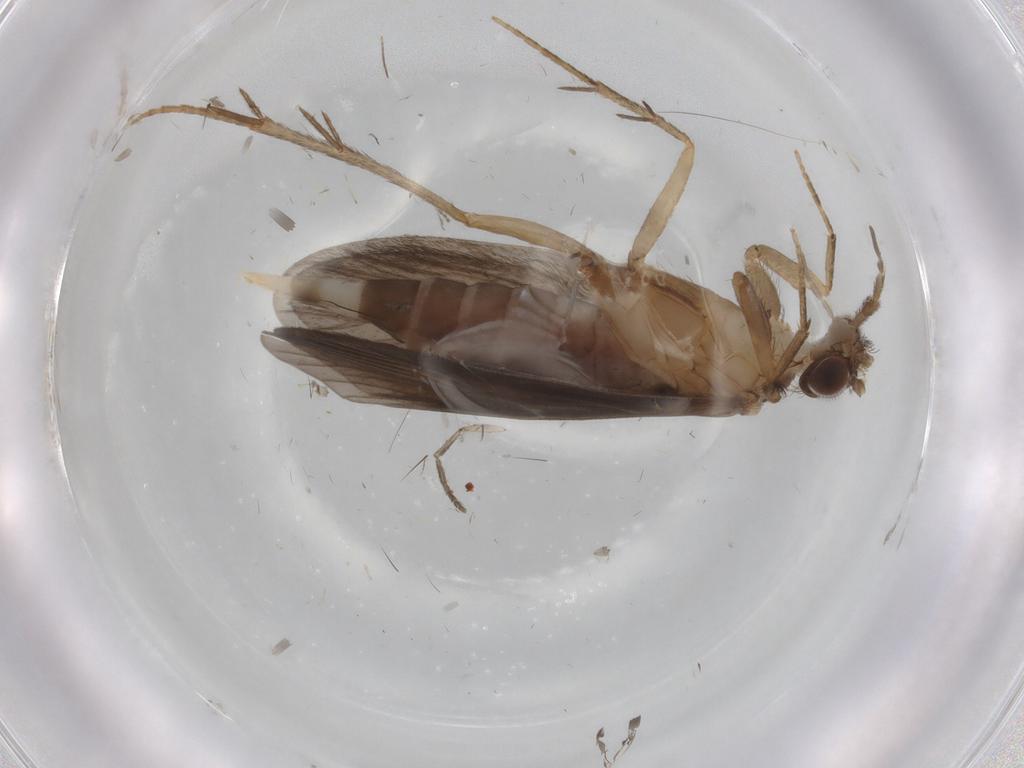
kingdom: Animalia
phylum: Arthropoda
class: Insecta
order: Trichoptera
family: Philopotamidae
